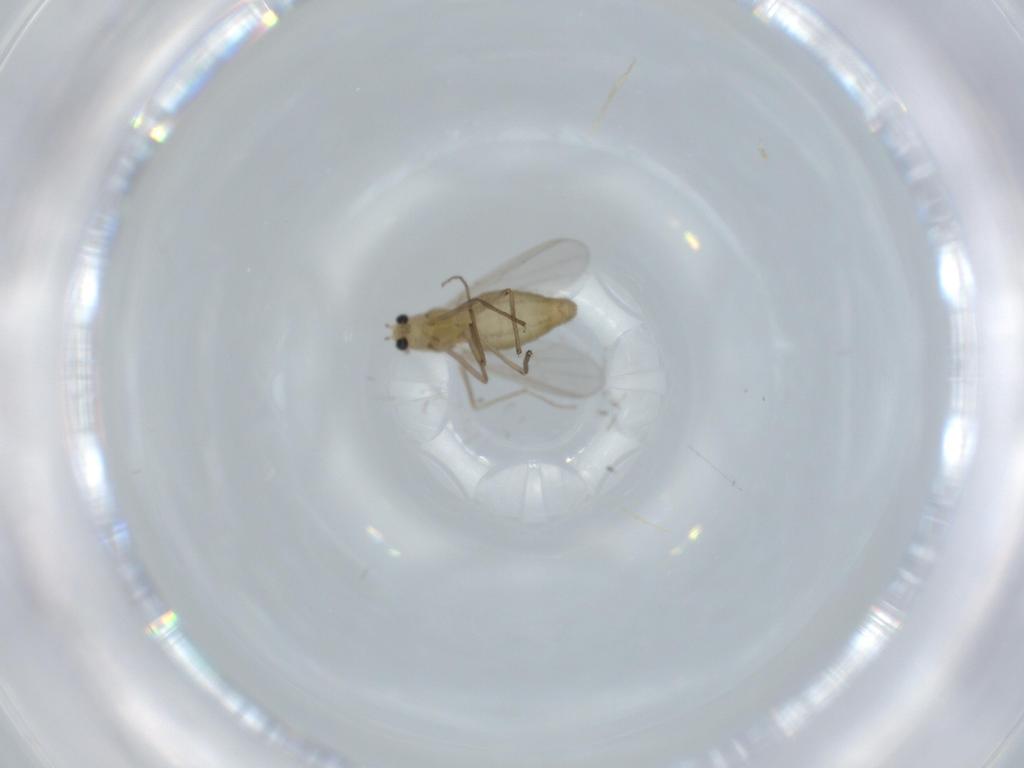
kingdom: Animalia
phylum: Arthropoda
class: Insecta
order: Diptera
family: Chironomidae
